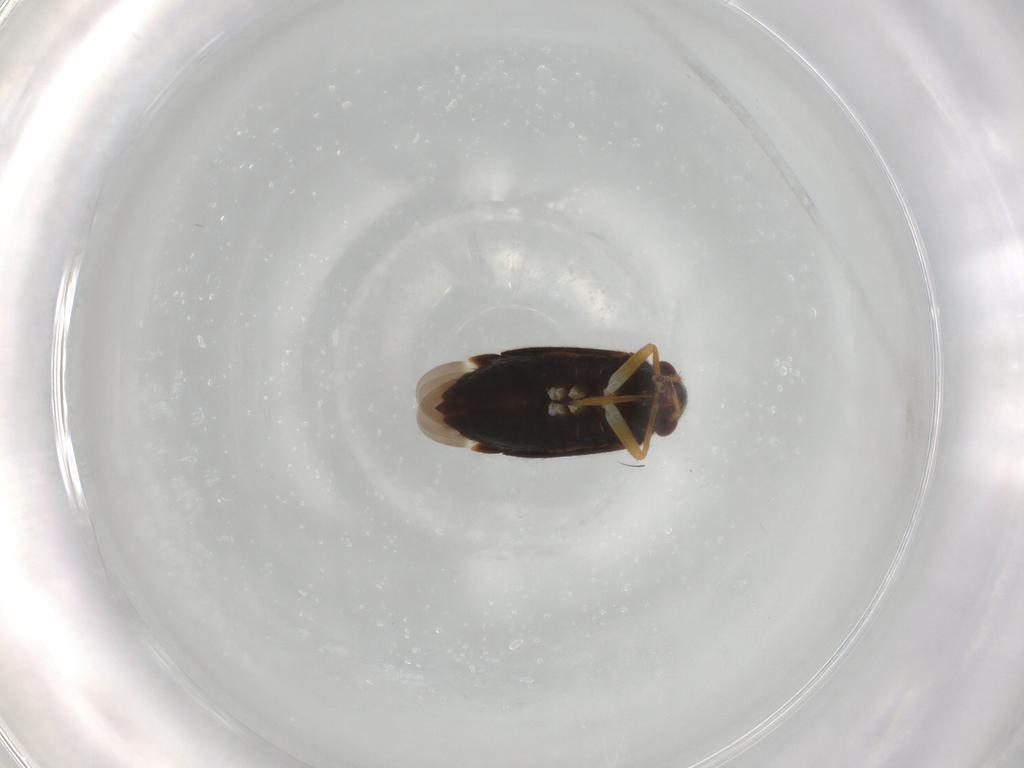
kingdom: Animalia
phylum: Arthropoda
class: Insecta
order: Hemiptera
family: Miridae
